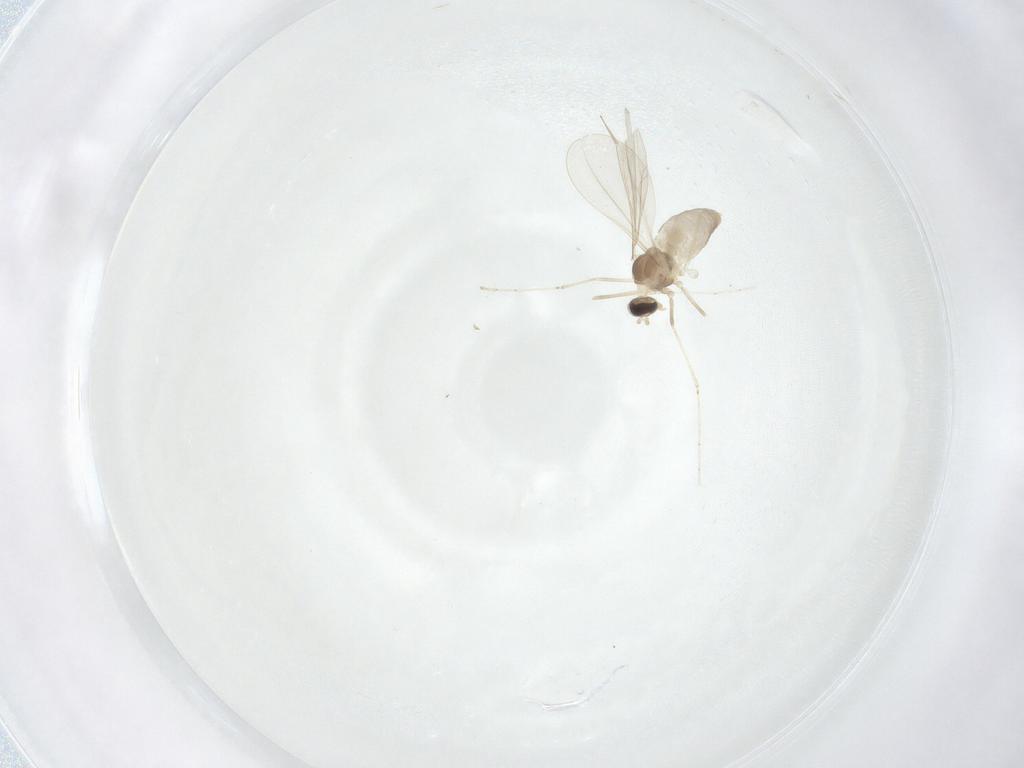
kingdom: Animalia
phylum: Arthropoda
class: Insecta
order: Diptera
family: Cecidomyiidae
